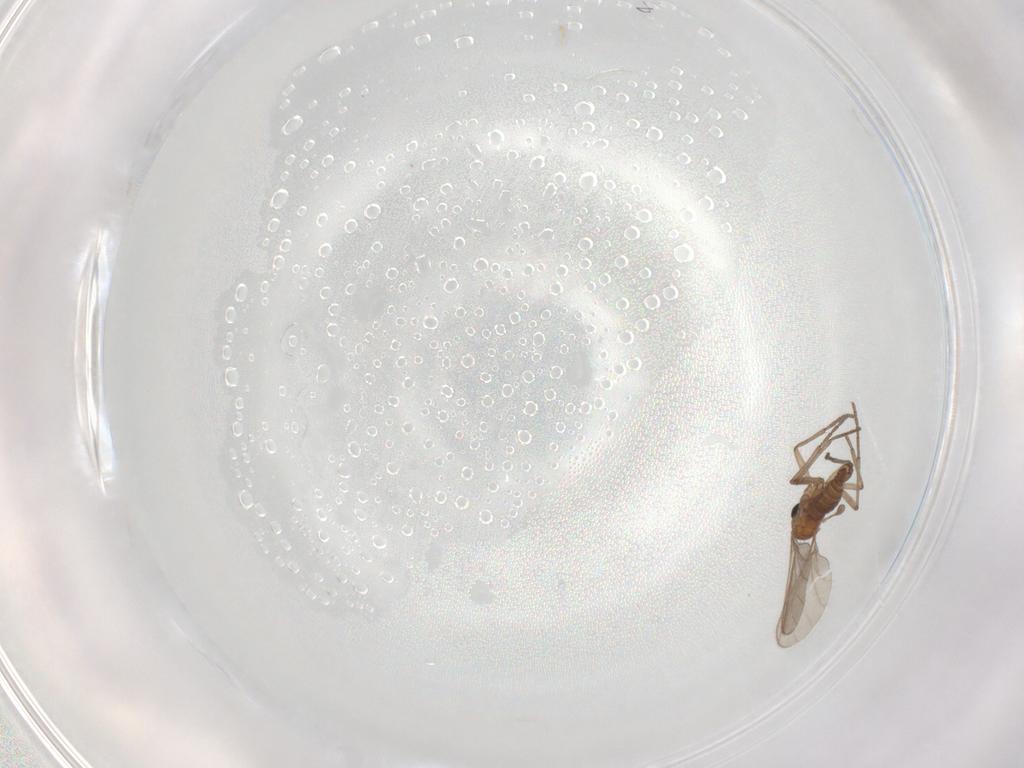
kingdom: Animalia
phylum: Arthropoda
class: Insecta
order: Diptera
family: Sciaridae
